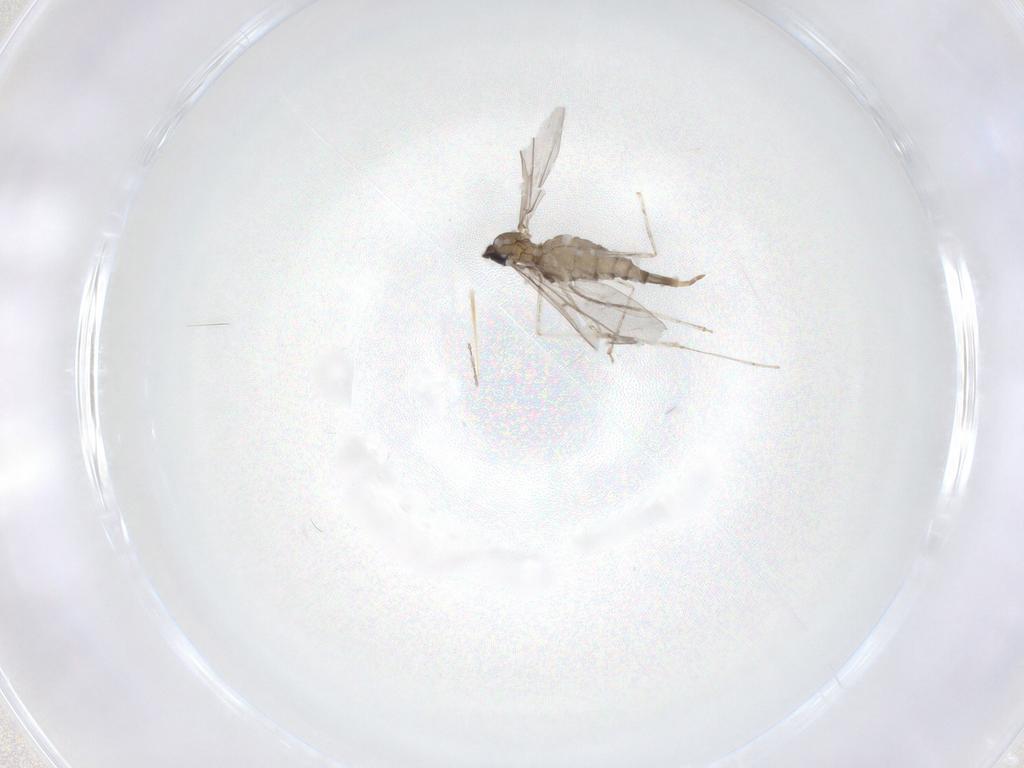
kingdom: Animalia
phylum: Arthropoda
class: Insecta
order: Diptera
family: Cecidomyiidae
